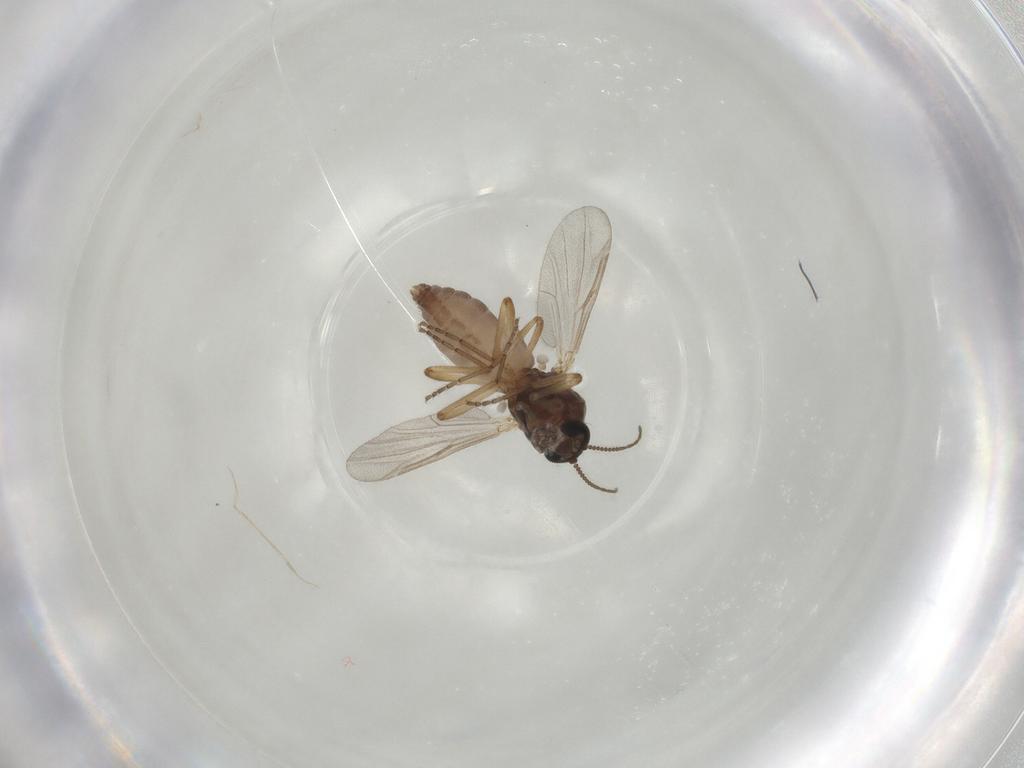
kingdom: Animalia
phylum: Arthropoda
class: Insecta
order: Diptera
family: Ceratopogonidae
